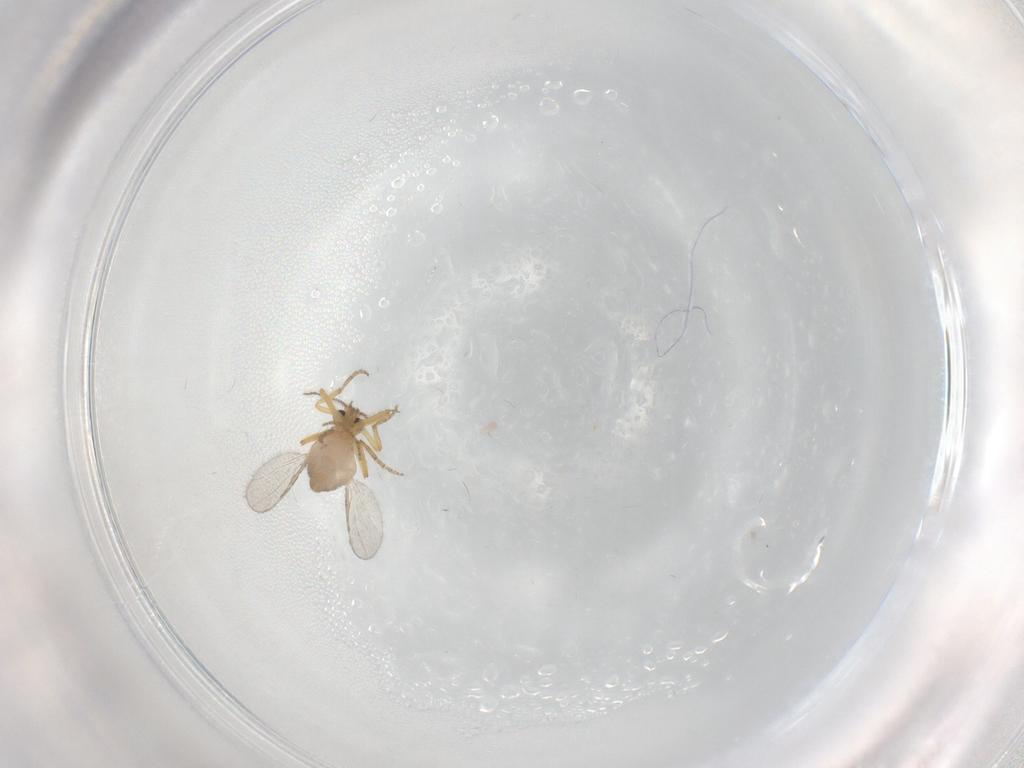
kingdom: Animalia
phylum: Arthropoda
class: Insecta
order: Diptera
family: Ceratopogonidae
